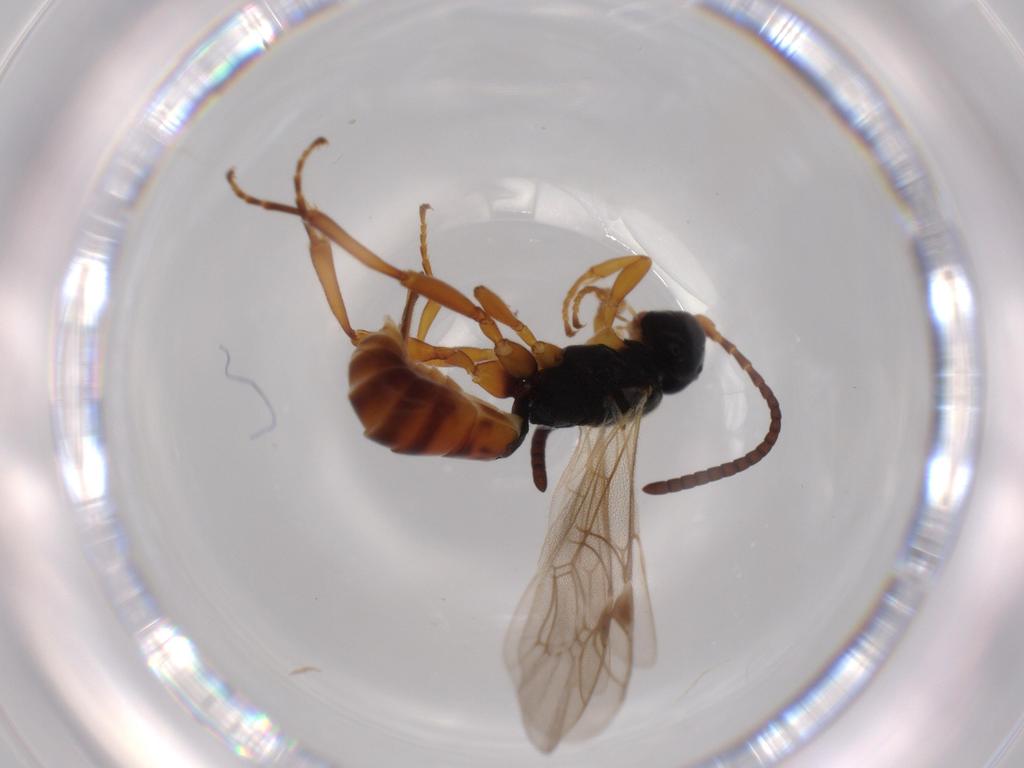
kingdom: Animalia
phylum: Arthropoda
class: Insecta
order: Hymenoptera
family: Ichneumonidae
